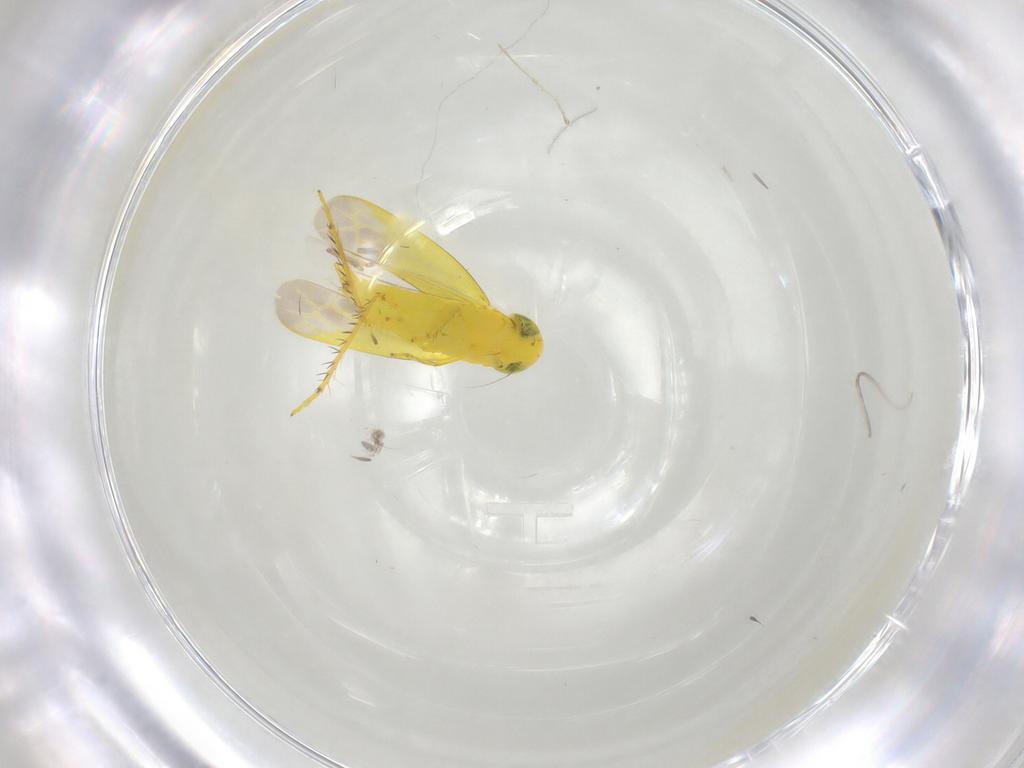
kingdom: Animalia
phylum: Arthropoda
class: Insecta
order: Hemiptera
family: Cicadellidae
